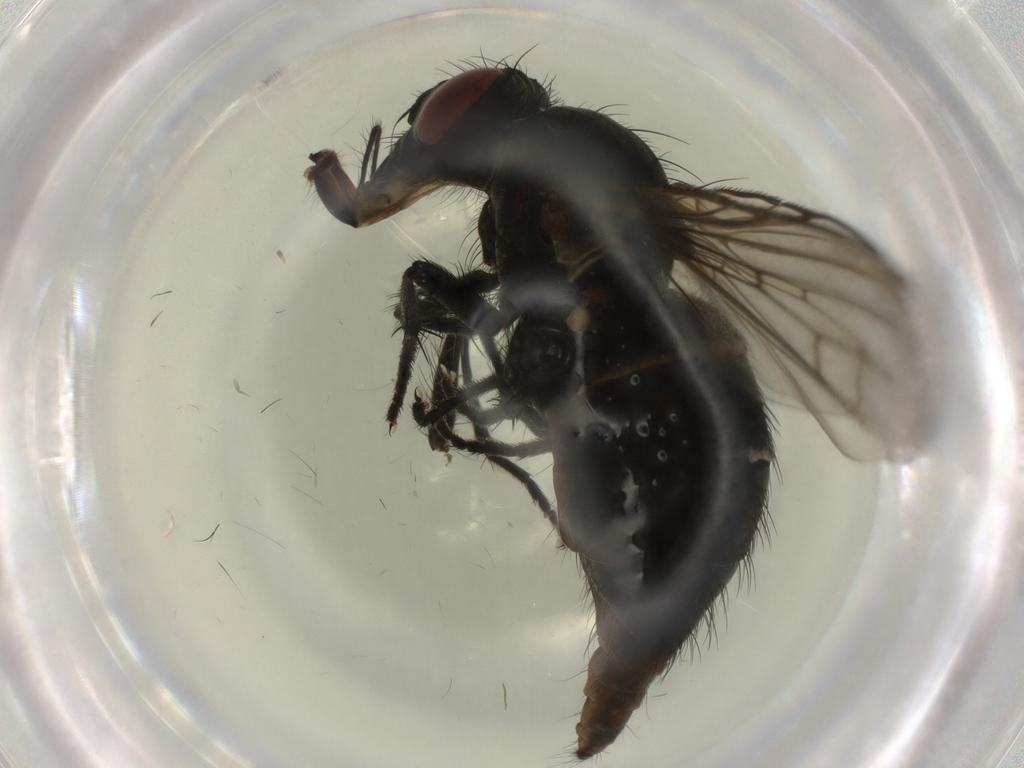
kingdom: Animalia
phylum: Arthropoda
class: Insecta
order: Diptera
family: Ceratopogonidae
